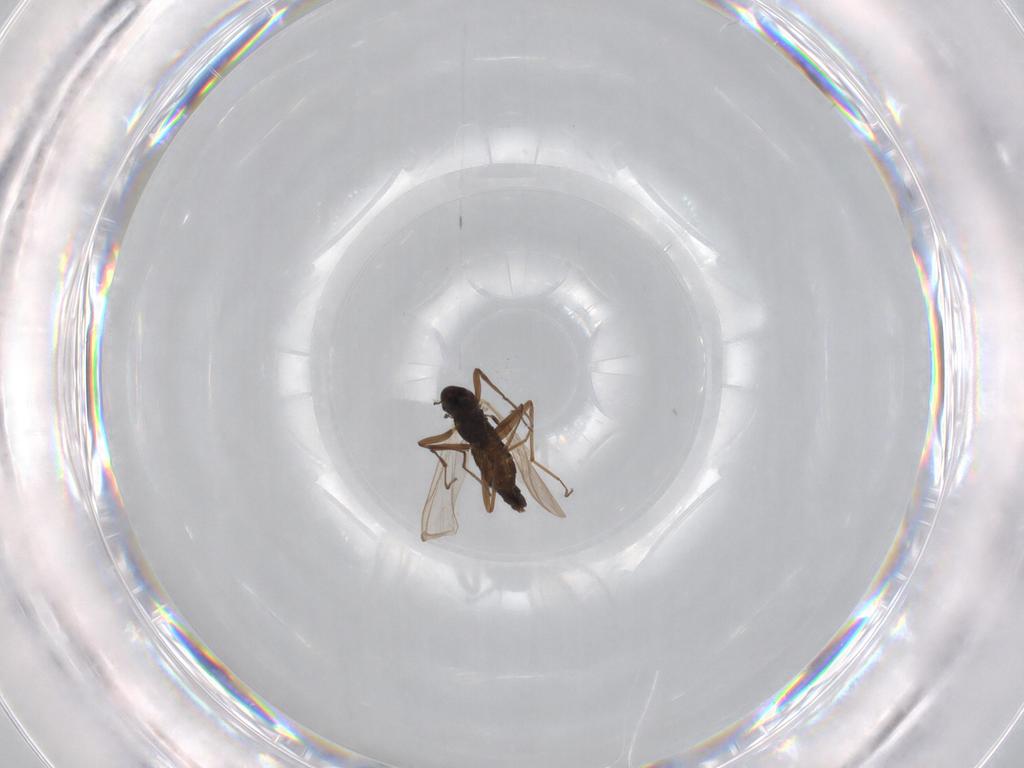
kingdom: Animalia
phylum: Arthropoda
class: Insecta
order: Diptera
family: Chironomidae
